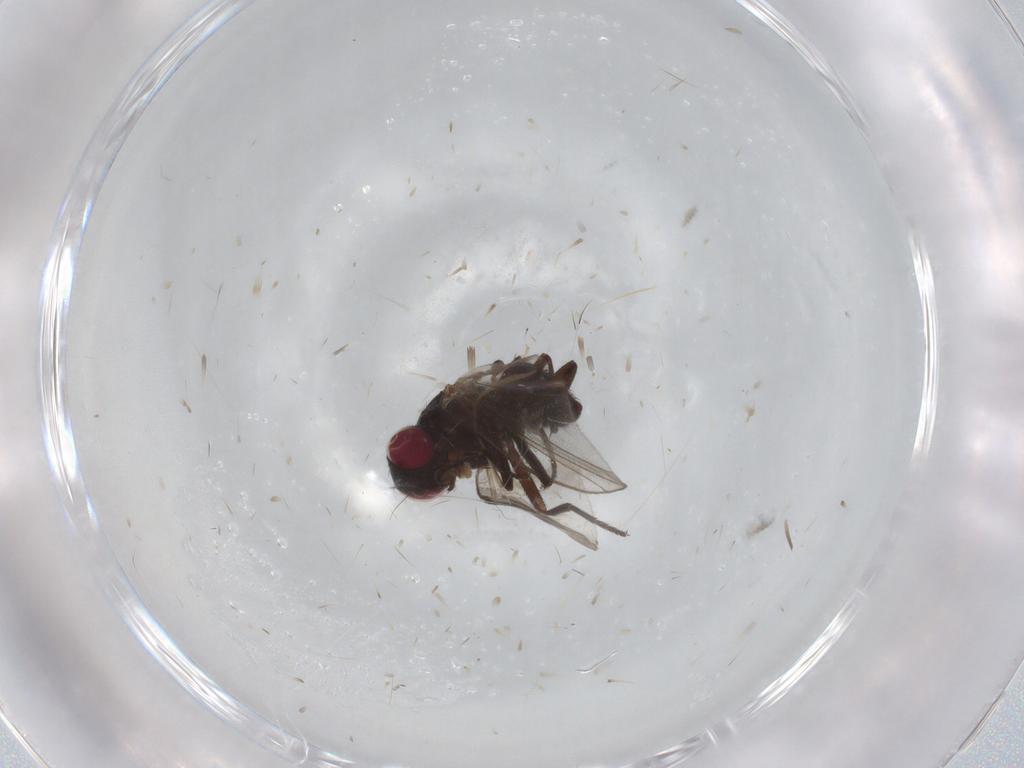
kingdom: Animalia
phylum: Arthropoda
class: Insecta
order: Diptera
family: Agromyzidae
